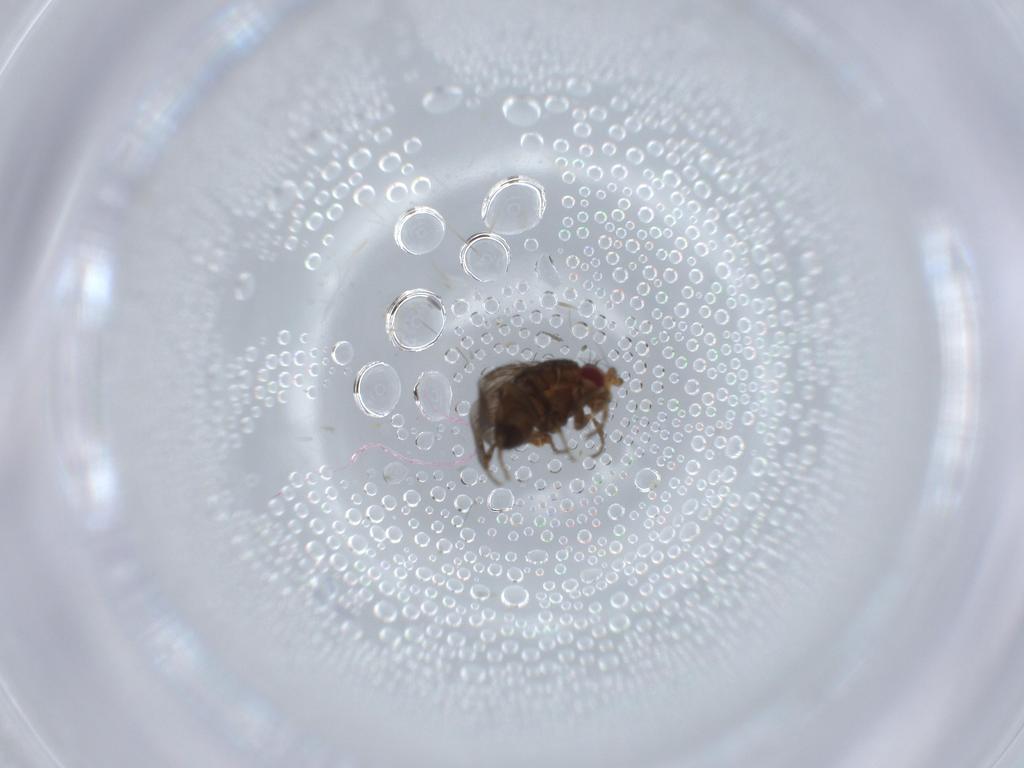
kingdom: Animalia
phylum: Arthropoda
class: Insecta
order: Diptera
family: Sphaeroceridae
